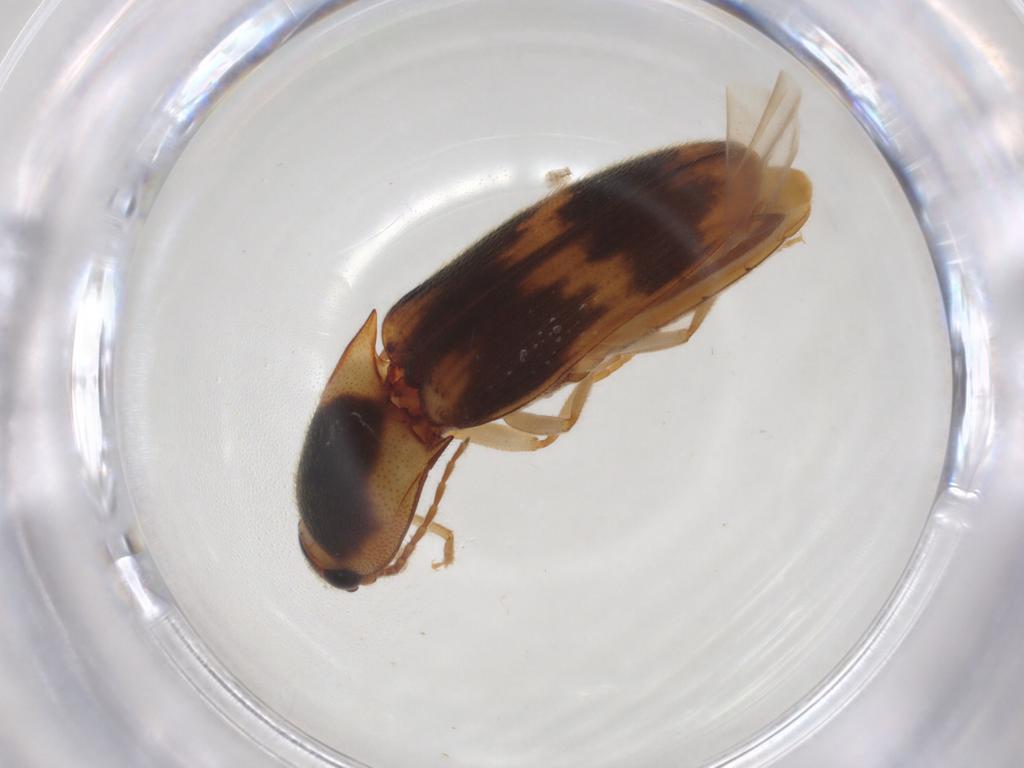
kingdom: Animalia
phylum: Arthropoda
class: Insecta
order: Coleoptera
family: Elateridae
